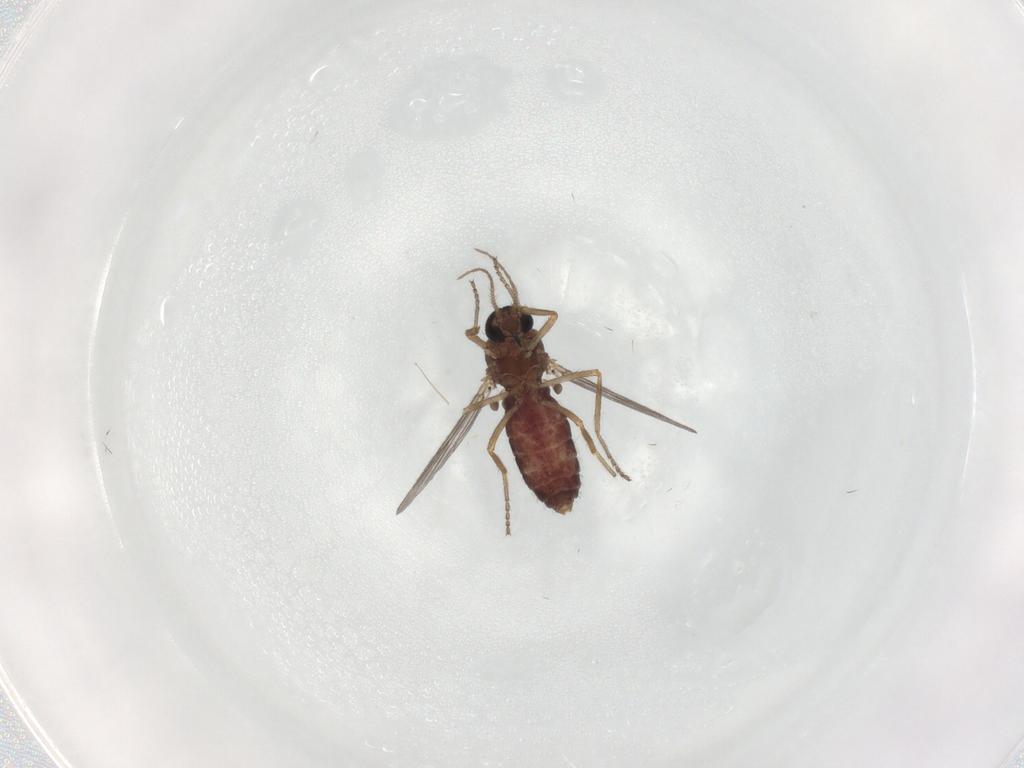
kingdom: Animalia
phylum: Arthropoda
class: Insecta
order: Diptera
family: Ceratopogonidae
